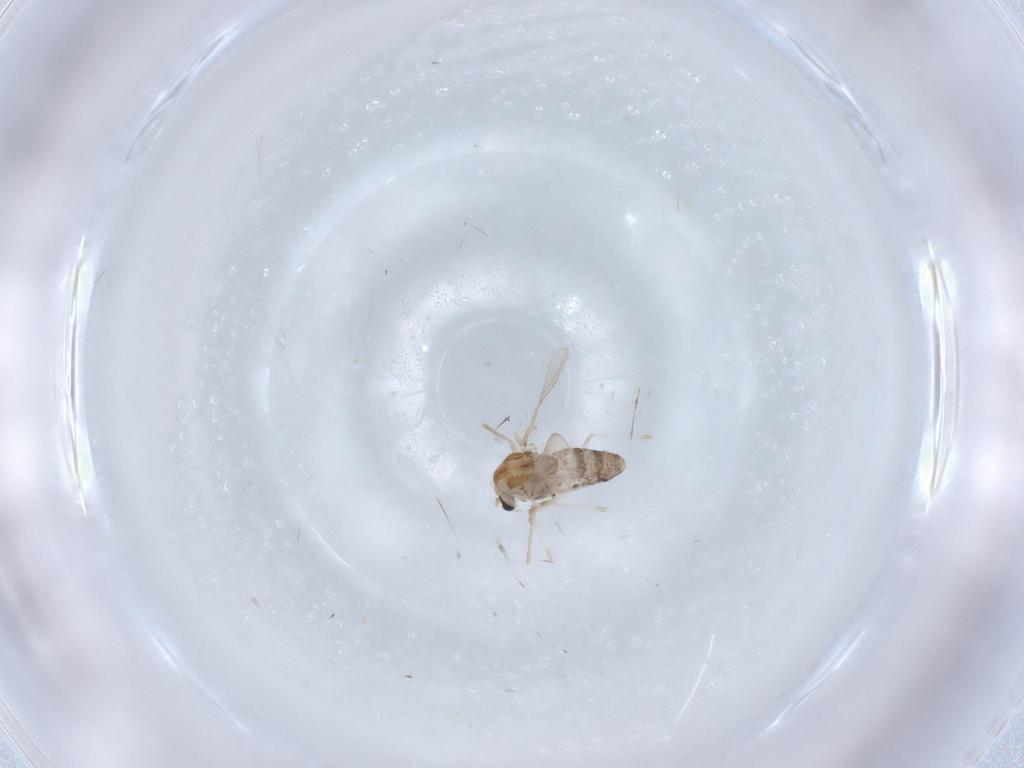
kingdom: Animalia
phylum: Arthropoda
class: Insecta
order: Diptera
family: Chironomidae
